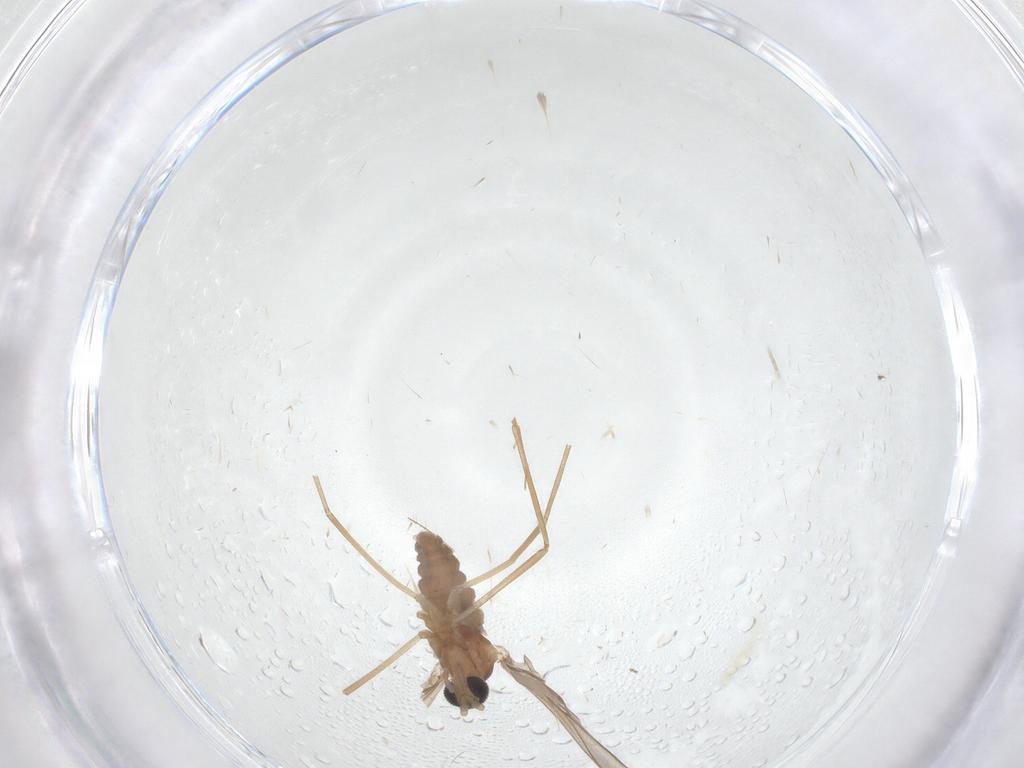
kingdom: Animalia
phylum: Arthropoda
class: Insecta
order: Diptera
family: Cecidomyiidae
